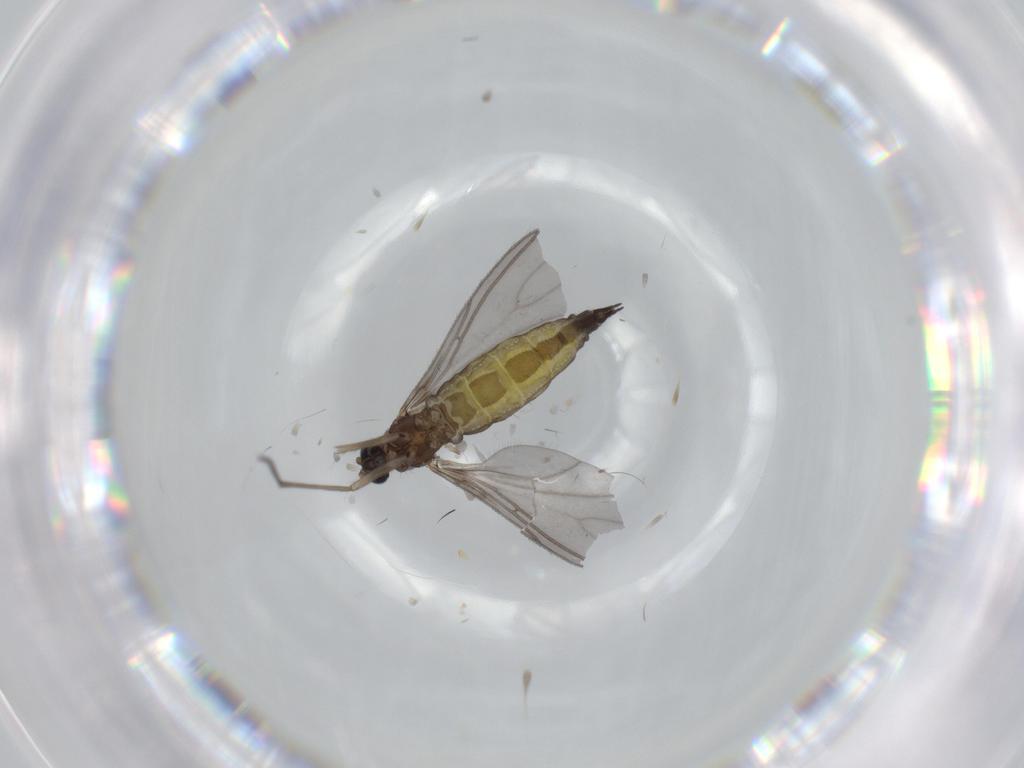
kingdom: Animalia
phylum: Arthropoda
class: Insecta
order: Diptera
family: Sciaridae
